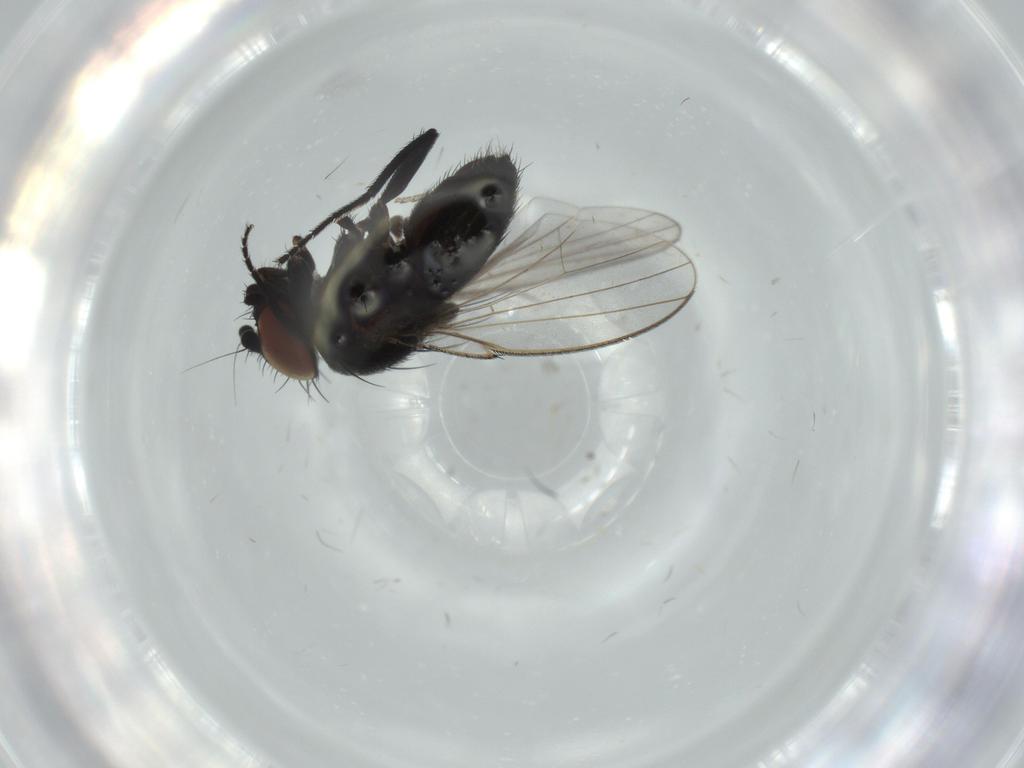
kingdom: Animalia
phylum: Arthropoda
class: Insecta
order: Diptera
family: Milichiidae
